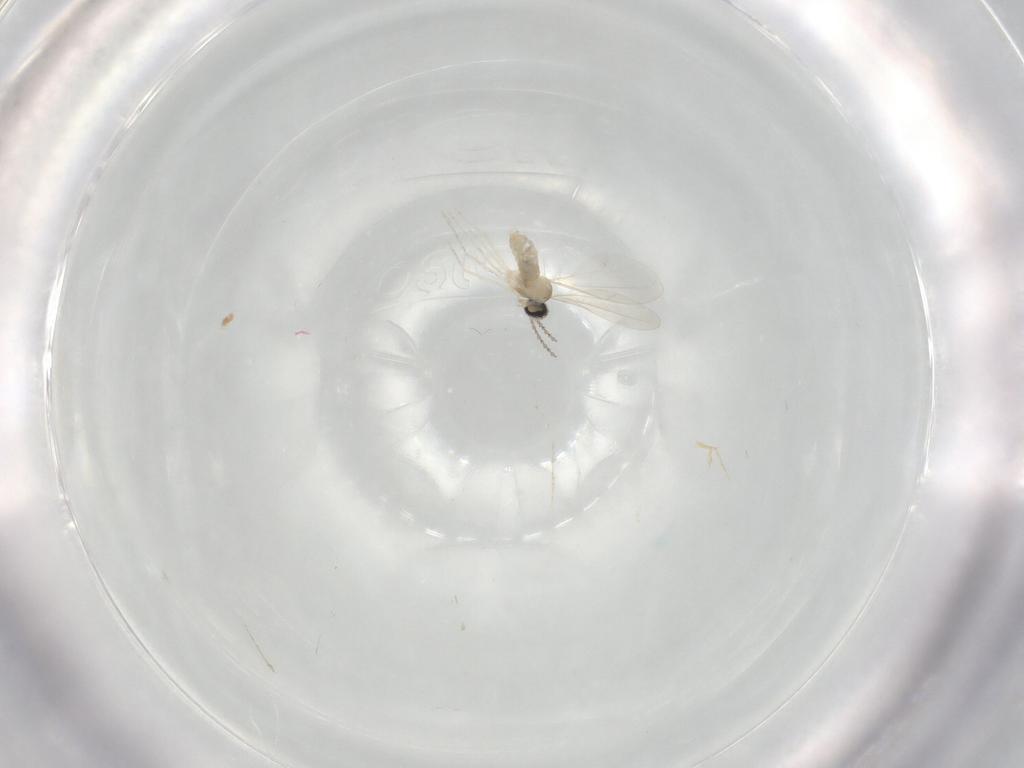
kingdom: Animalia
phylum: Arthropoda
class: Insecta
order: Diptera
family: Cecidomyiidae
